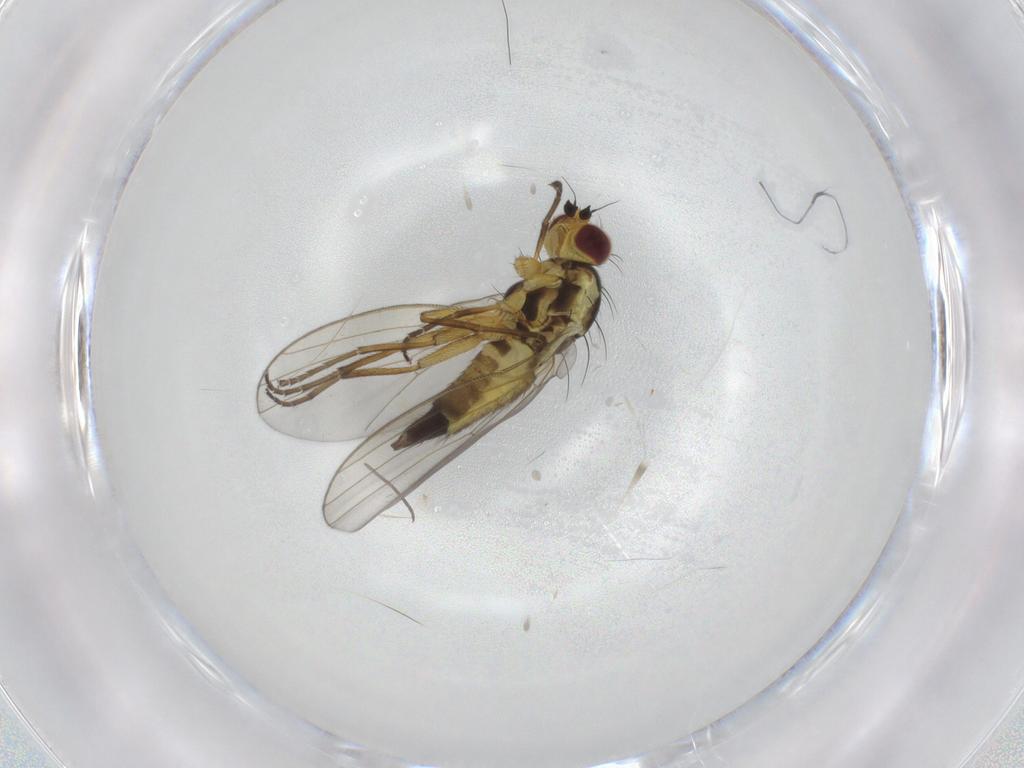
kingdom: Animalia
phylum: Arthropoda
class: Insecta
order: Diptera
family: Agromyzidae
